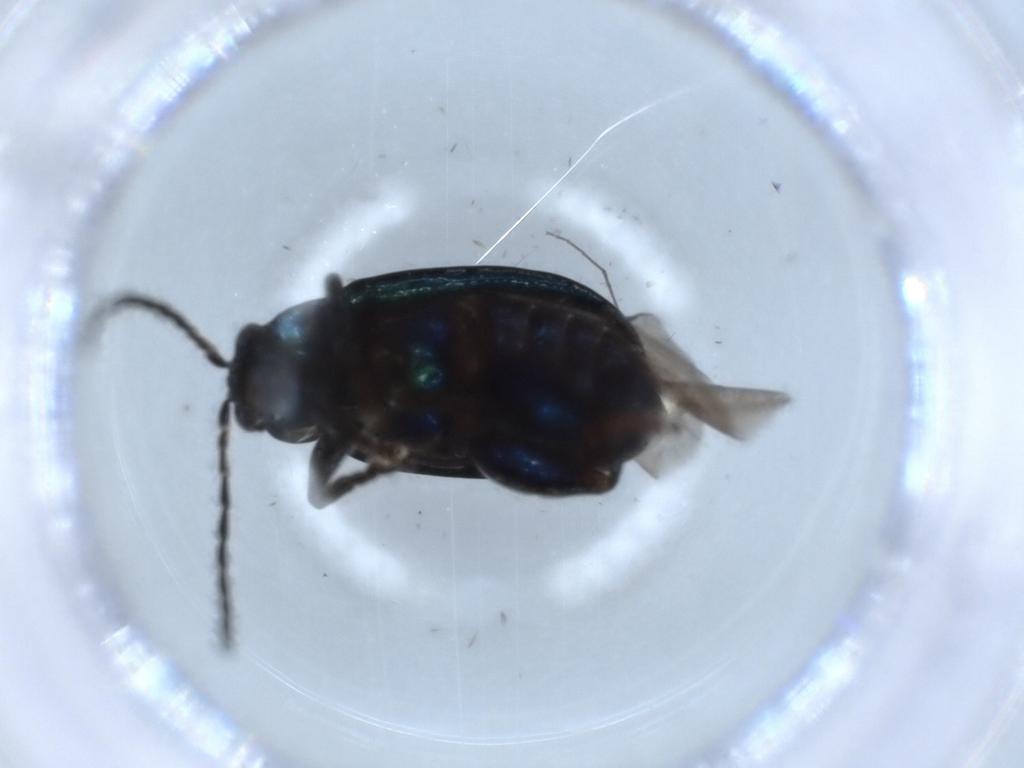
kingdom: Animalia
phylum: Arthropoda
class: Insecta
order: Coleoptera
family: Chrysomelidae
